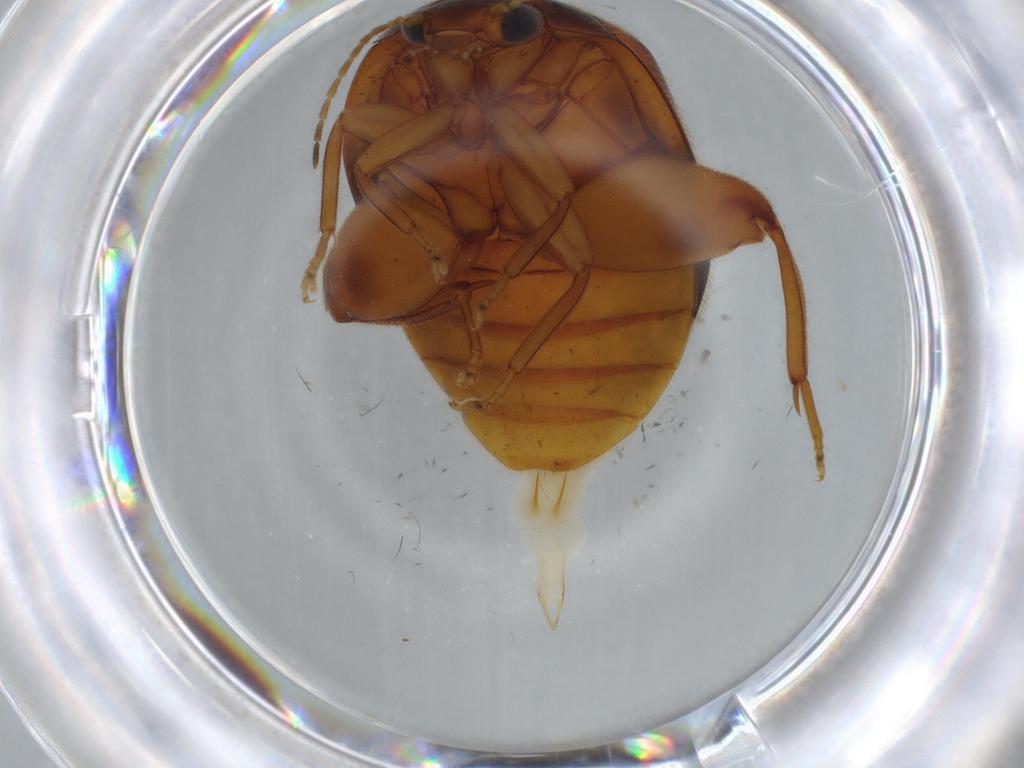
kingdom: Animalia
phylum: Arthropoda
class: Insecta
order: Coleoptera
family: Scirtidae
